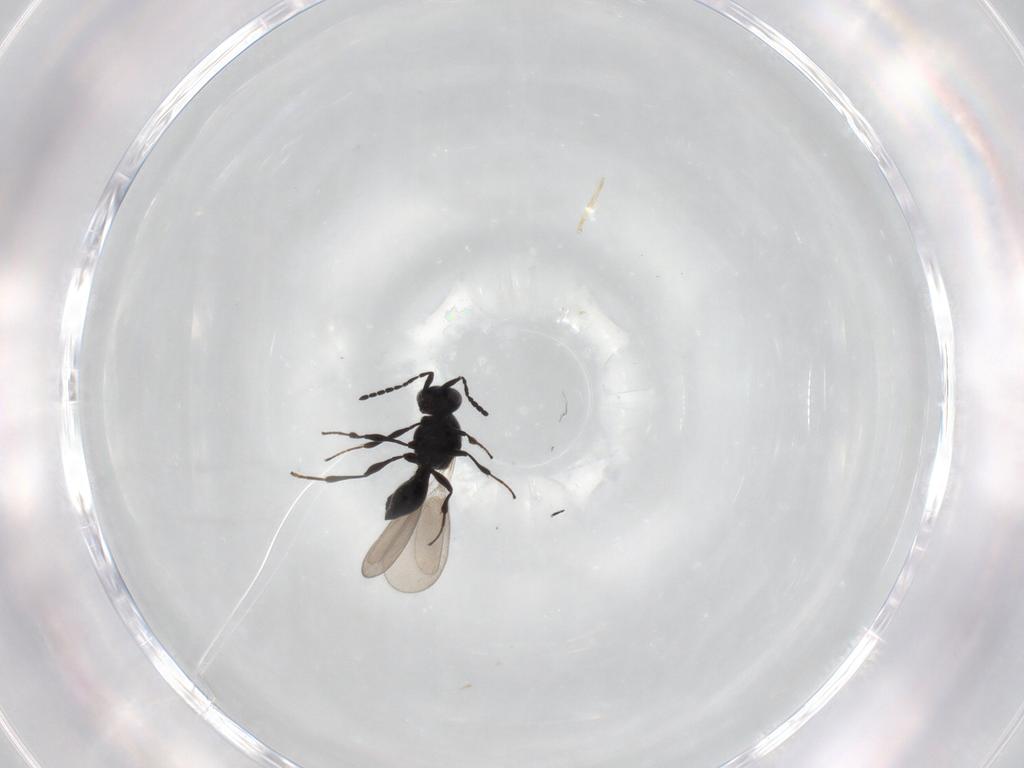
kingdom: Animalia
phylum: Arthropoda
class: Insecta
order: Hymenoptera
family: Platygastridae
